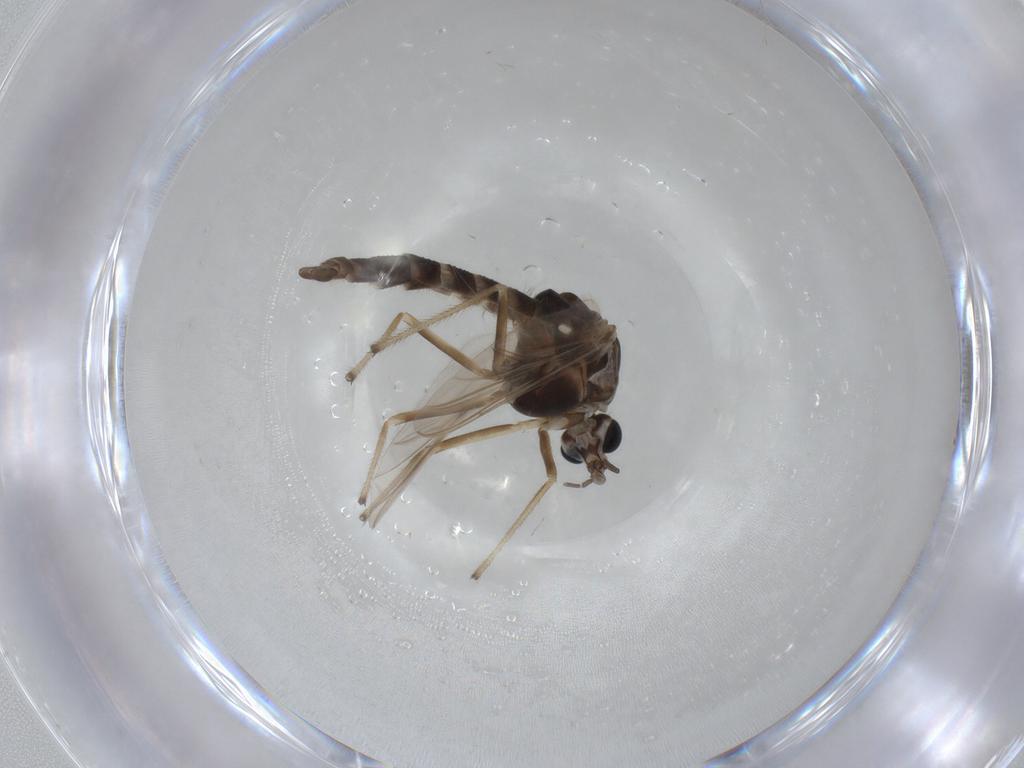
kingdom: Animalia
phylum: Arthropoda
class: Insecta
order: Diptera
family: Chironomidae
